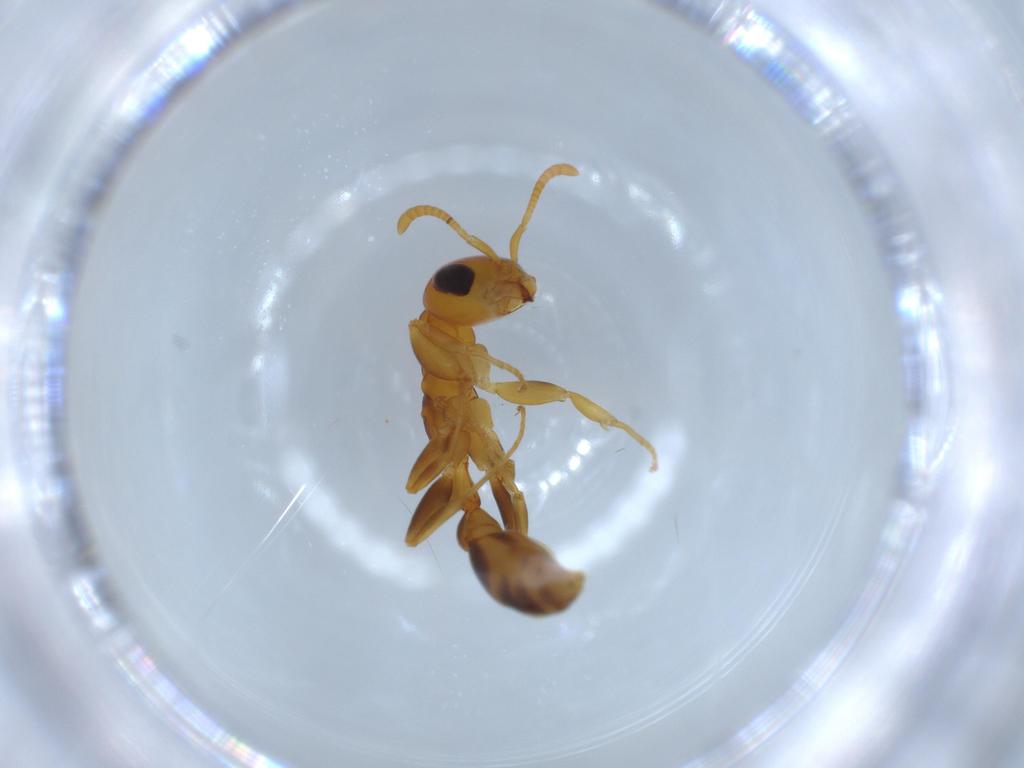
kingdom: Animalia
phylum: Arthropoda
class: Insecta
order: Hymenoptera
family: Formicidae
